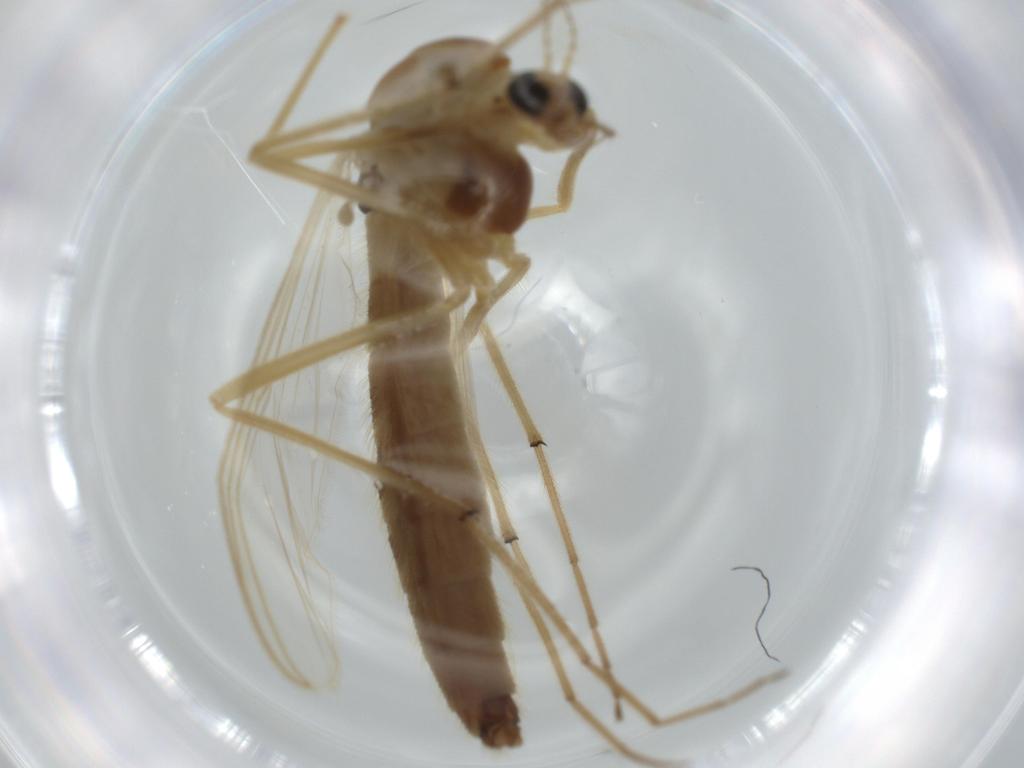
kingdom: Animalia
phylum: Arthropoda
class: Insecta
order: Diptera
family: Chironomidae
